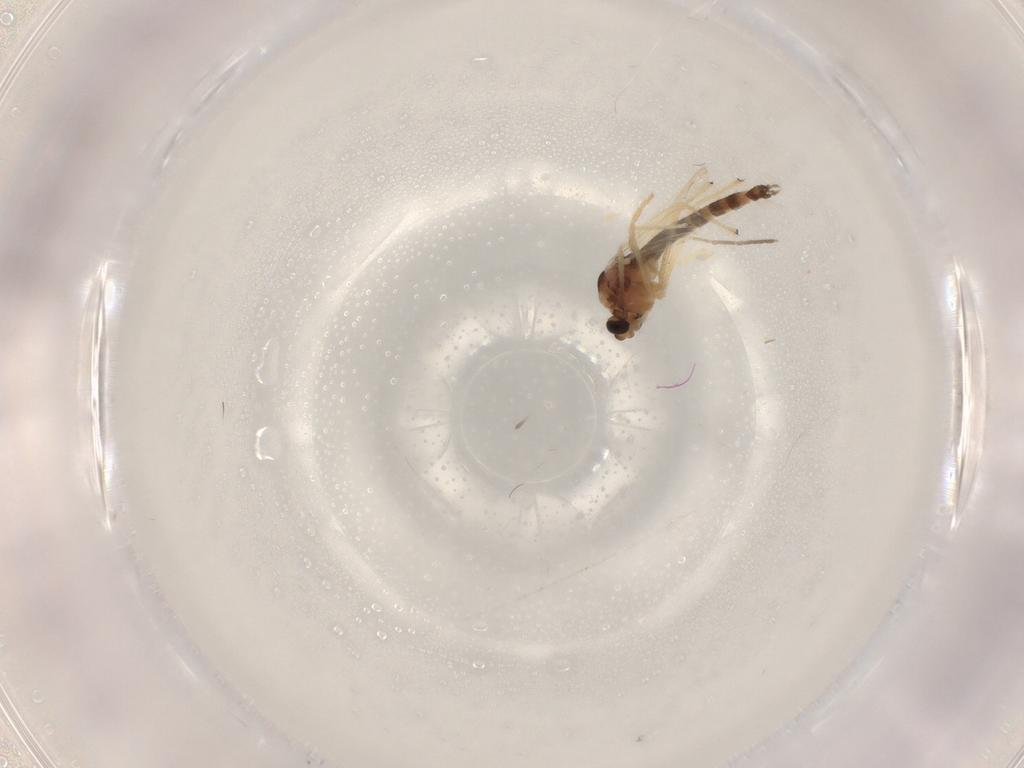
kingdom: Animalia
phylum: Arthropoda
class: Insecta
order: Diptera
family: Chironomidae
